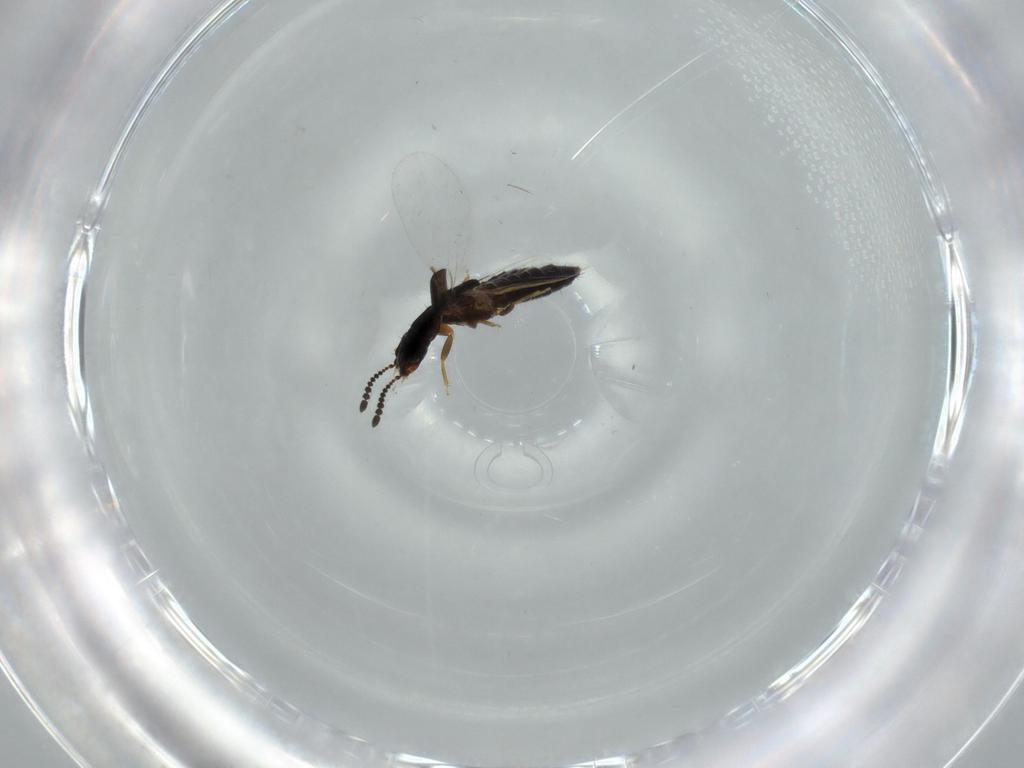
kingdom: Animalia
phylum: Arthropoda
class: Insecta
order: Coleoptera
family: Staphylinidae
